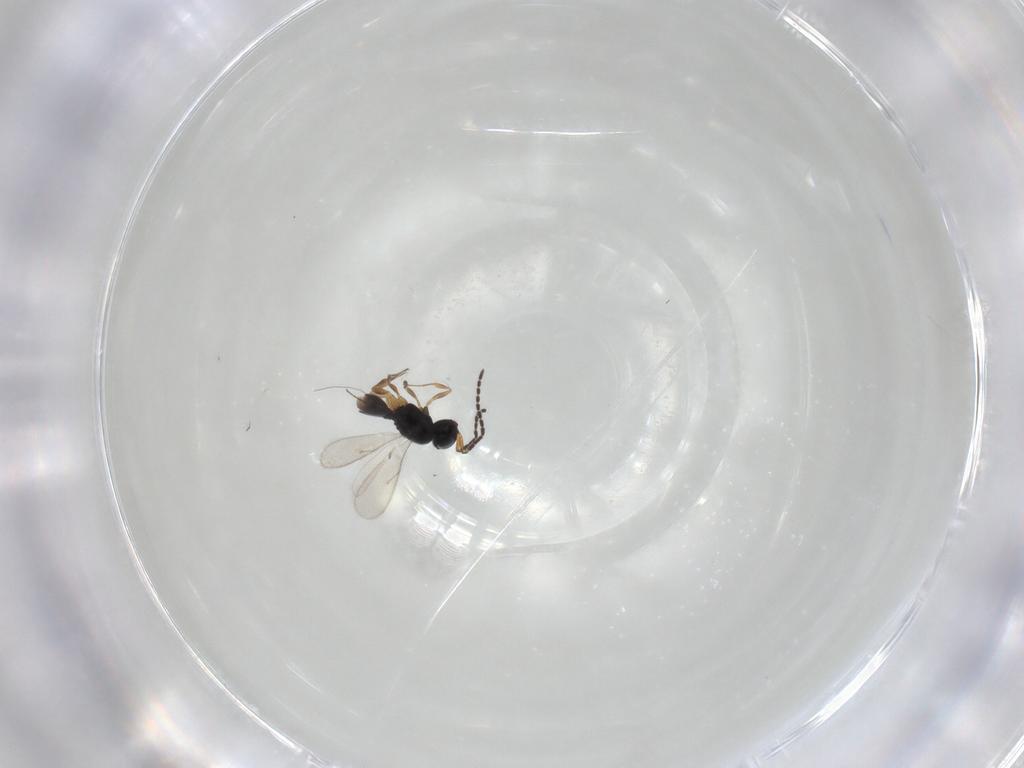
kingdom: Animalia
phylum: Arthropoda
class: Insecta
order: Hymenoptera
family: Scelionidae
